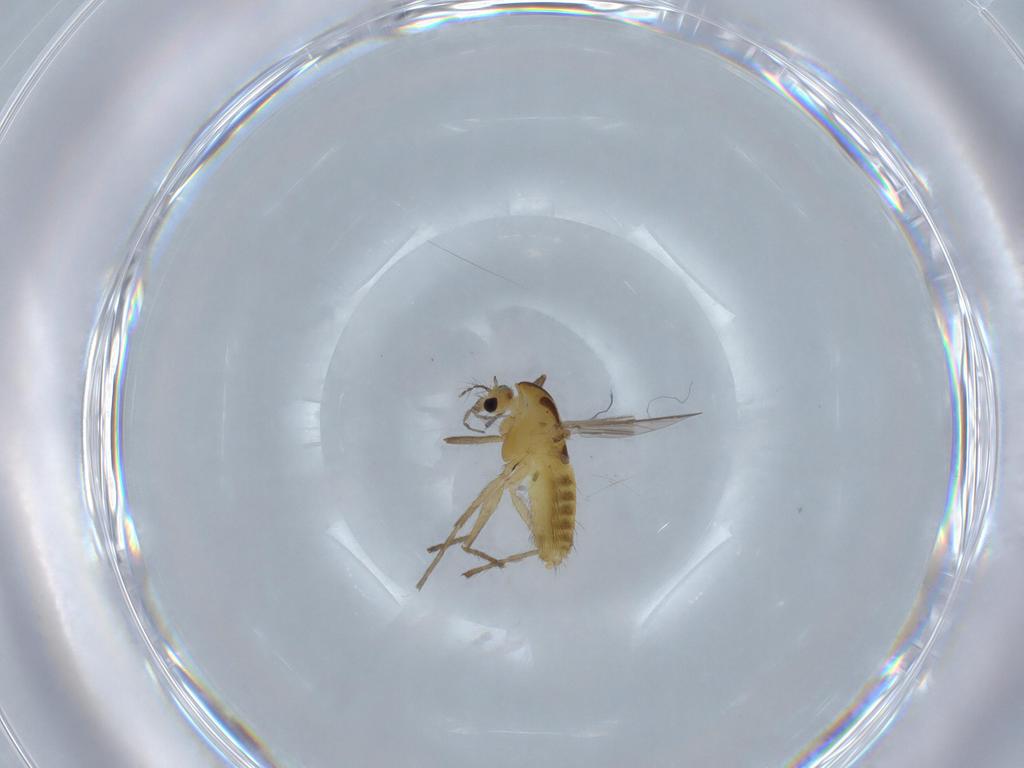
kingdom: Animalia
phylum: Arthropoda
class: Insecta
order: Diptera
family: Chironomidae
